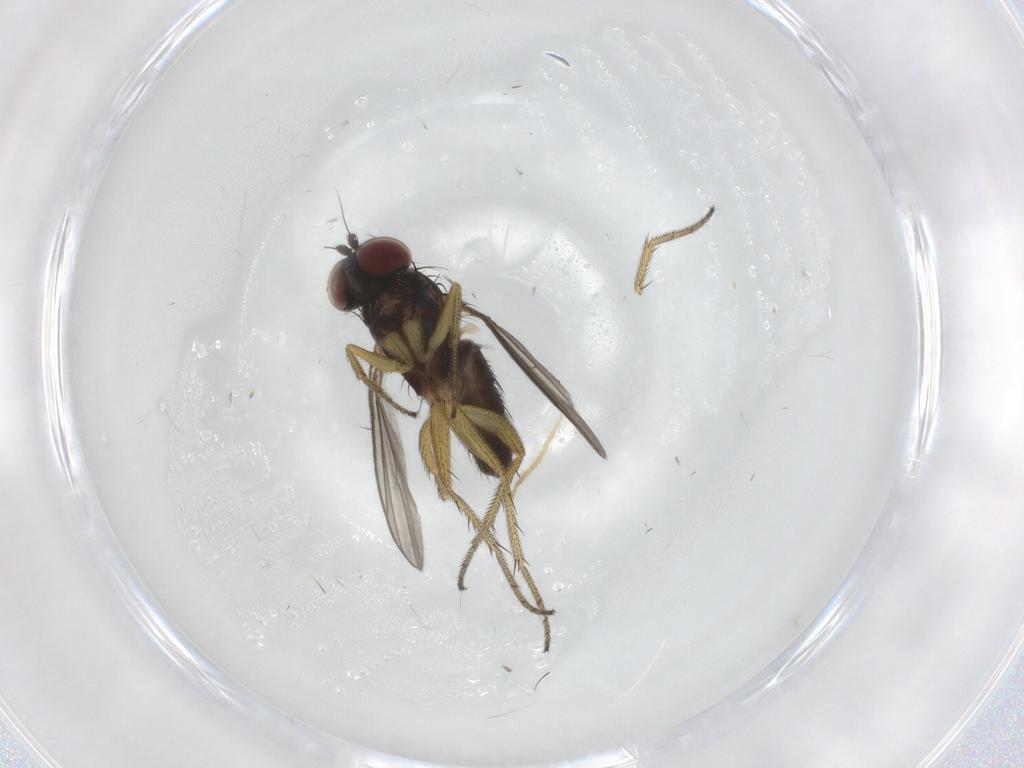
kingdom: Animalia
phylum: Arthropoda
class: Insecta
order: Diptera
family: Dolichopodidae
